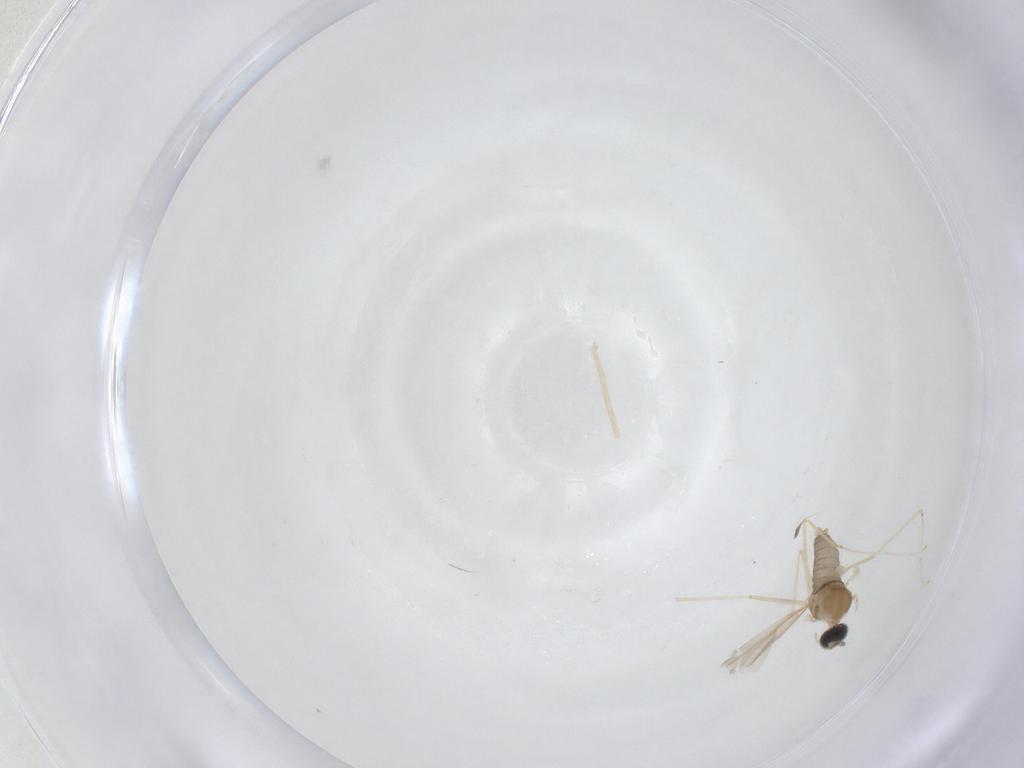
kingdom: Animalia
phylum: Arthropoda
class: Insecta
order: Diptera
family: Cecidomyiidae
